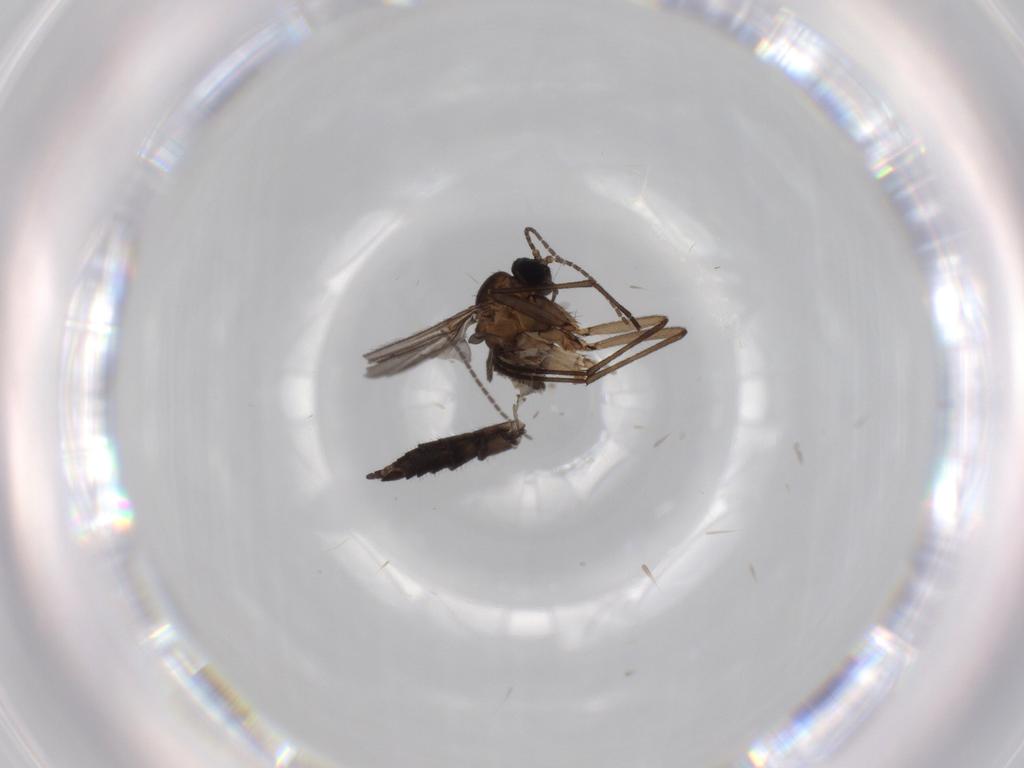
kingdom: Animalia
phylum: Arthropoda
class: Insecta
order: Diptera
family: Sciaridae
